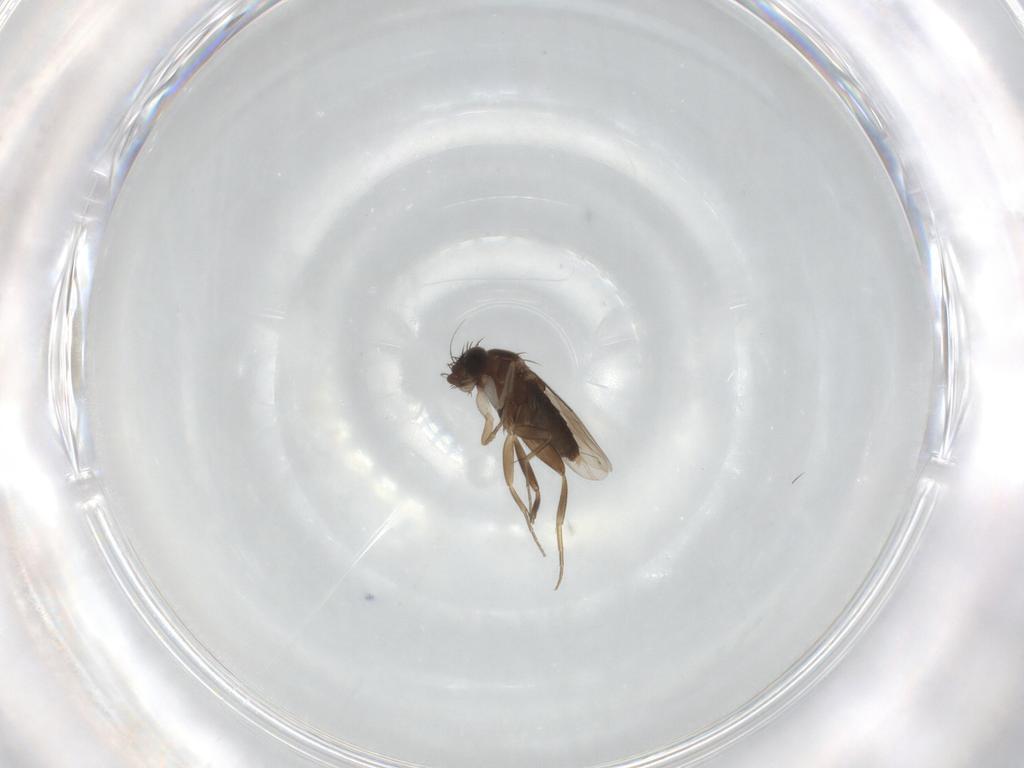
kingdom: Animalia
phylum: Arthropoda
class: Insecta
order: Diptera
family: Phoridae
